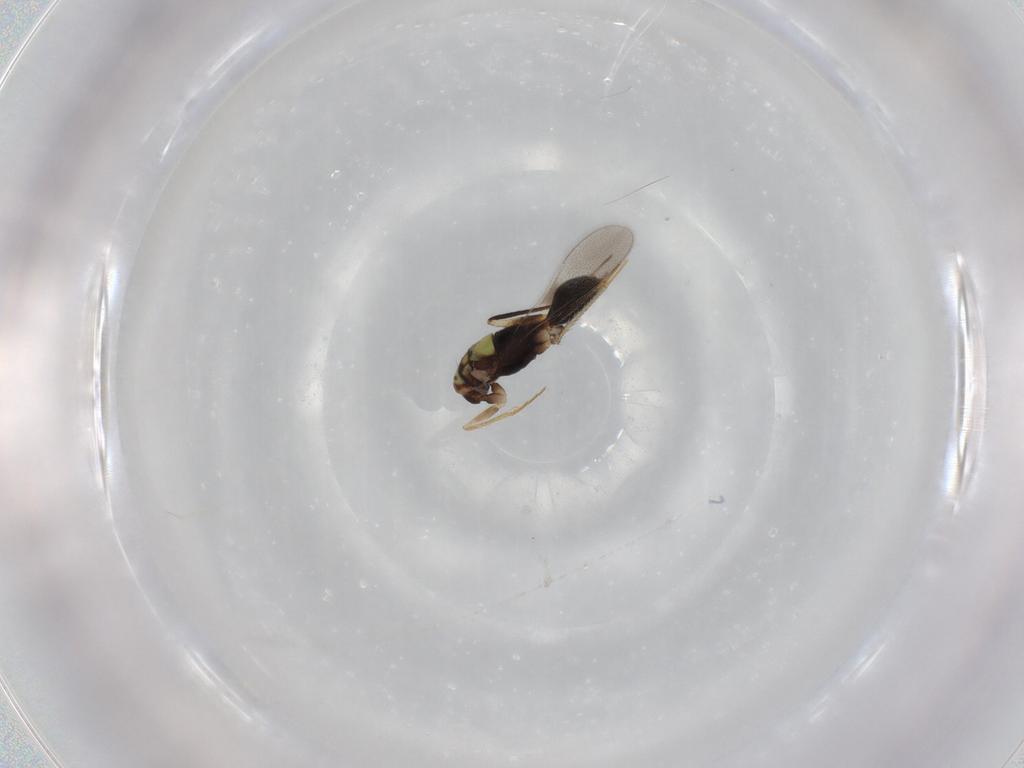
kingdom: Animalia
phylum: Arthropoda
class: Insecta
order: Hymenoptera
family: Mymaridae
